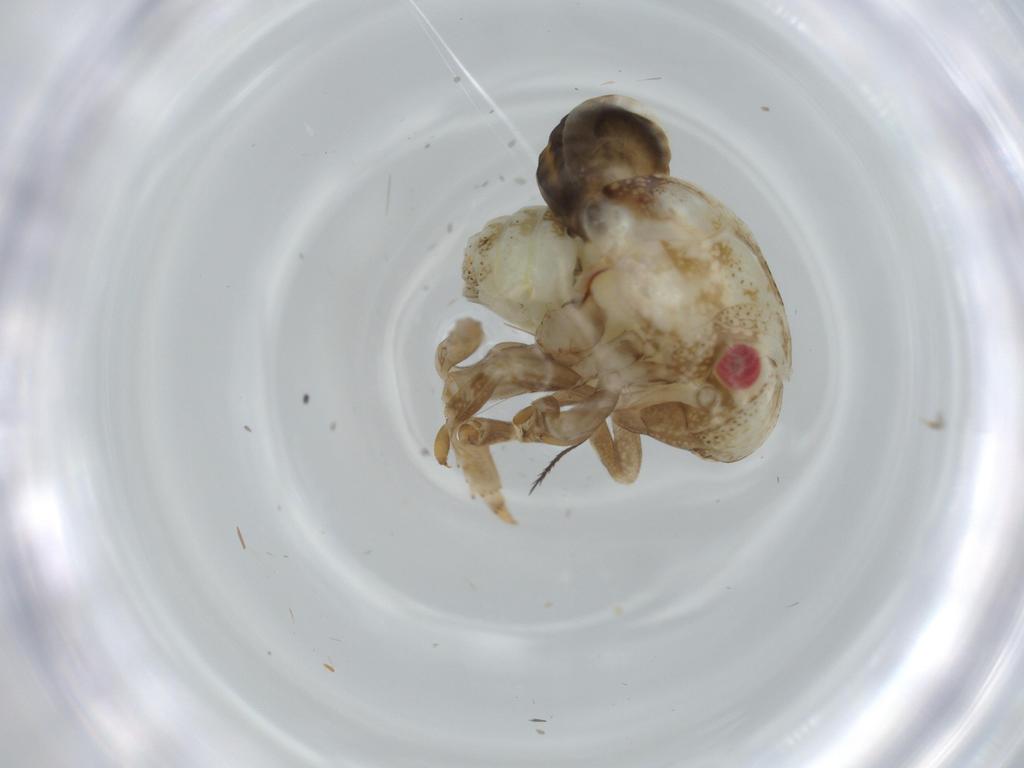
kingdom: Animalia
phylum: Arthropoda
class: Insecta
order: Hemiptera
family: Acanaloniidae
